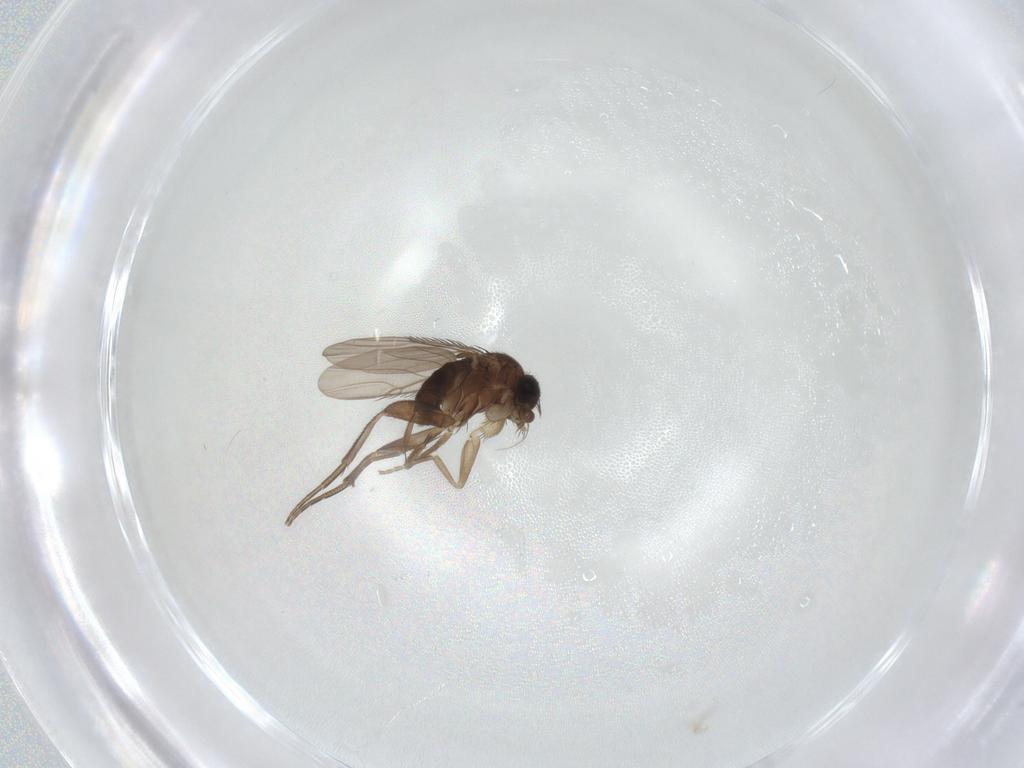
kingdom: Animalia
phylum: Arthropoda
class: Insecta
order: Diptera
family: Phoridae
